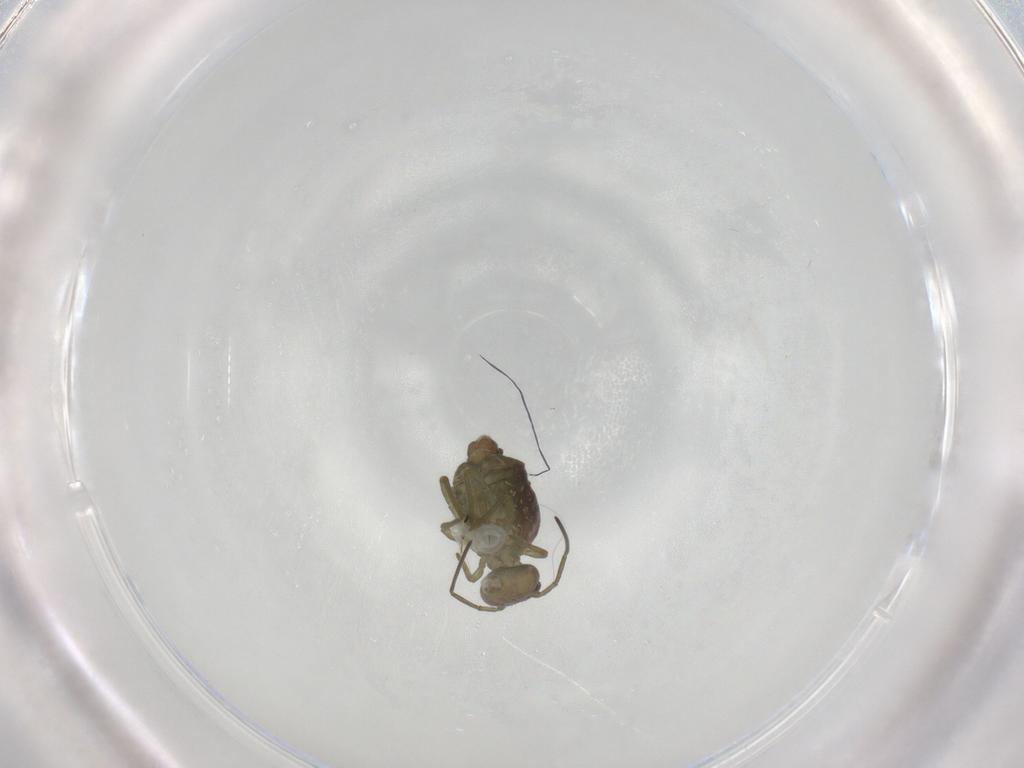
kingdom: Animalia
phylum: Arthropoda
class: Collembola
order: Symphypleona
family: Sminthuridae
